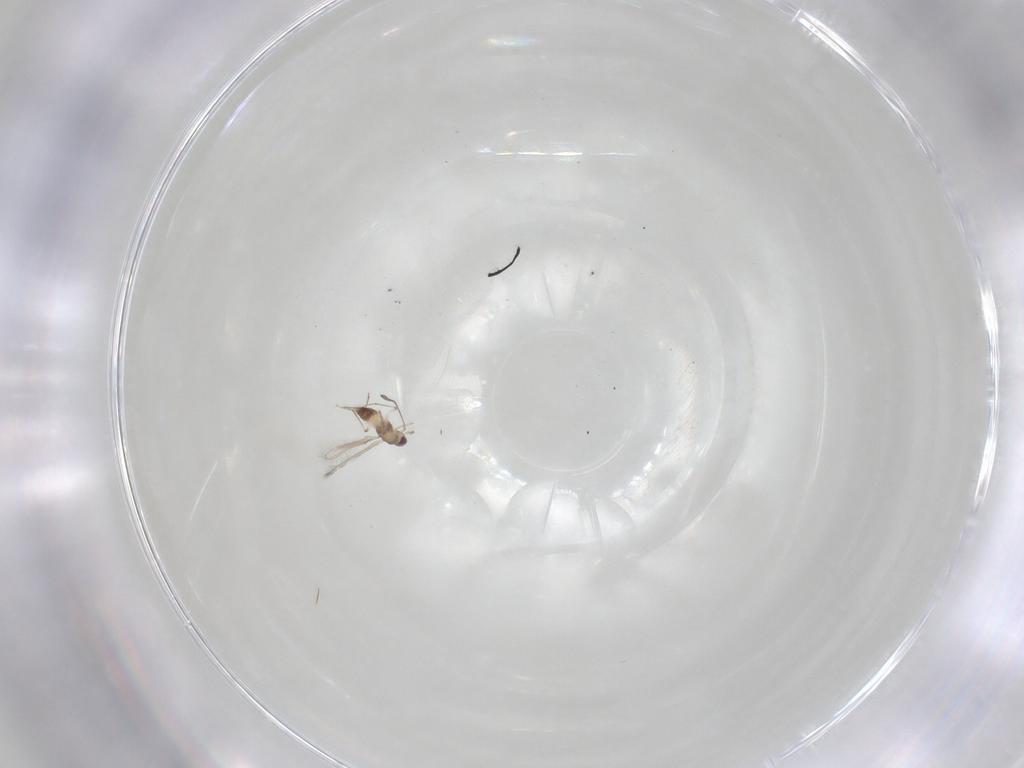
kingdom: Animalia
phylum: Arthropoda
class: Insecta
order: Hymenoptera
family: Mymaridae
